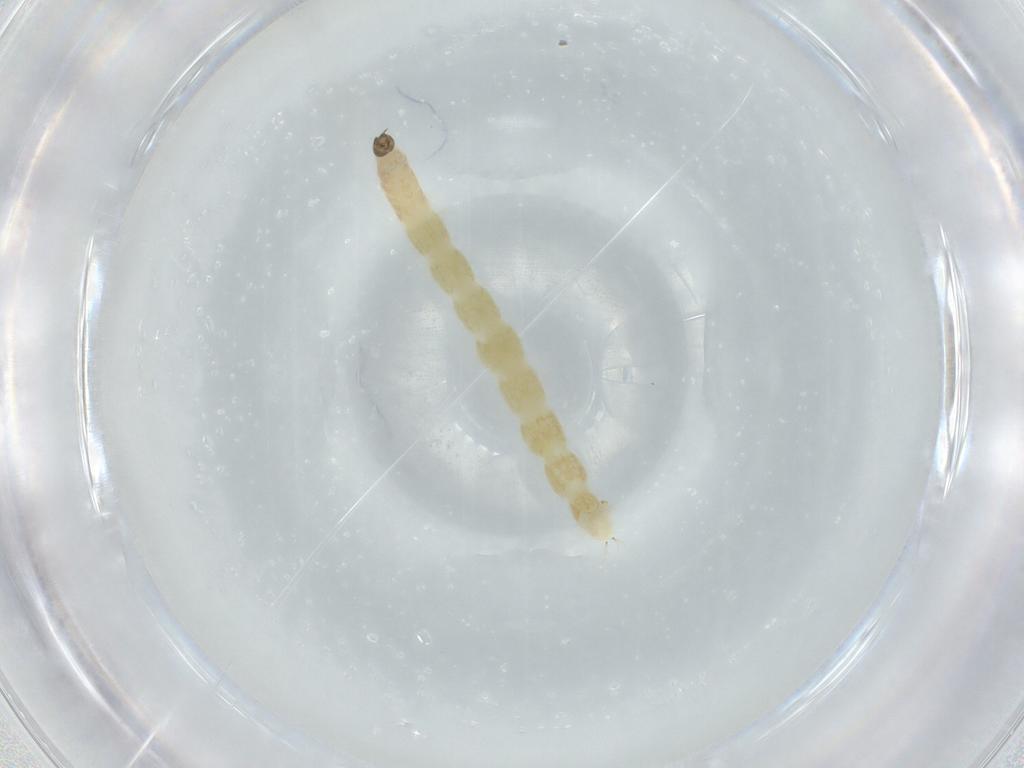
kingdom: Animalia
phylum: Arthropoda
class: Insecta
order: Diptera
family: Chironomidae
